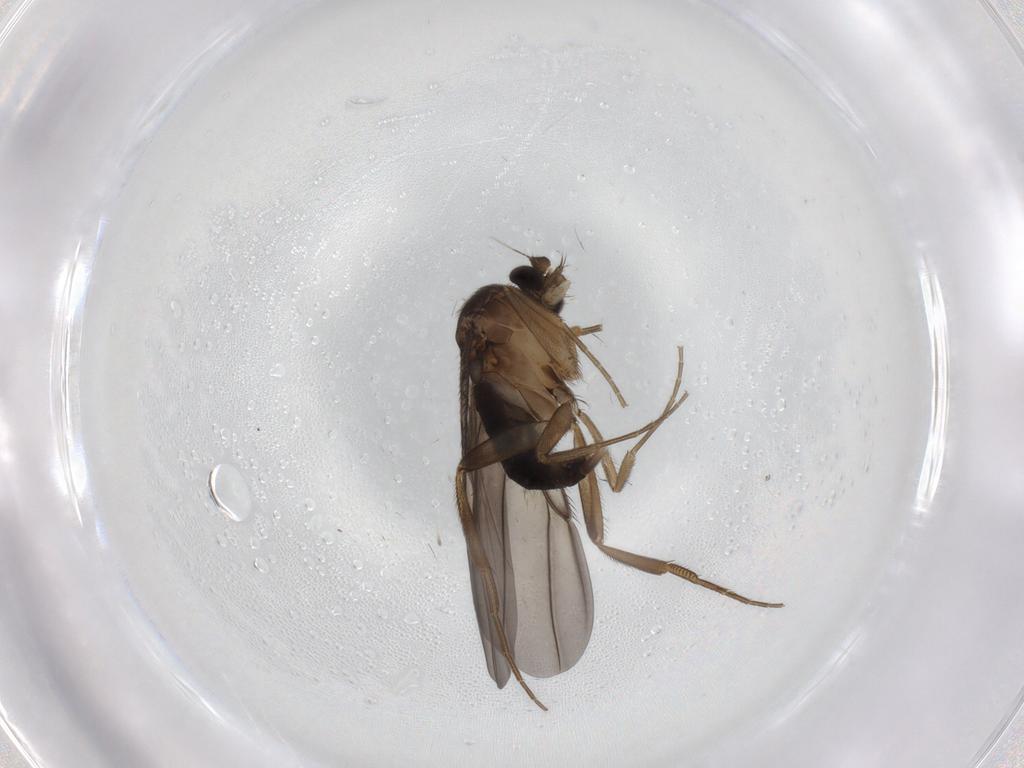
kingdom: Animalia
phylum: Arthropoda
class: Insecta
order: Diptera
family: Phoridae
